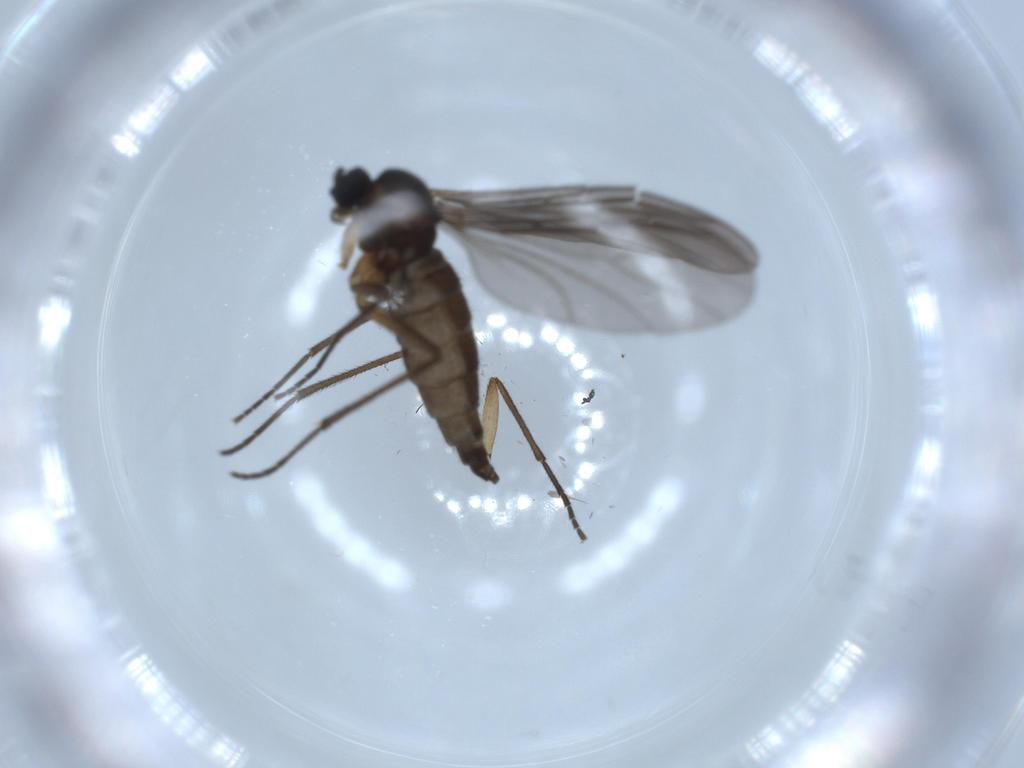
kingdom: Animalia
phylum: Arthropoda
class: Insecta
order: Diptera
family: Sciaridae
